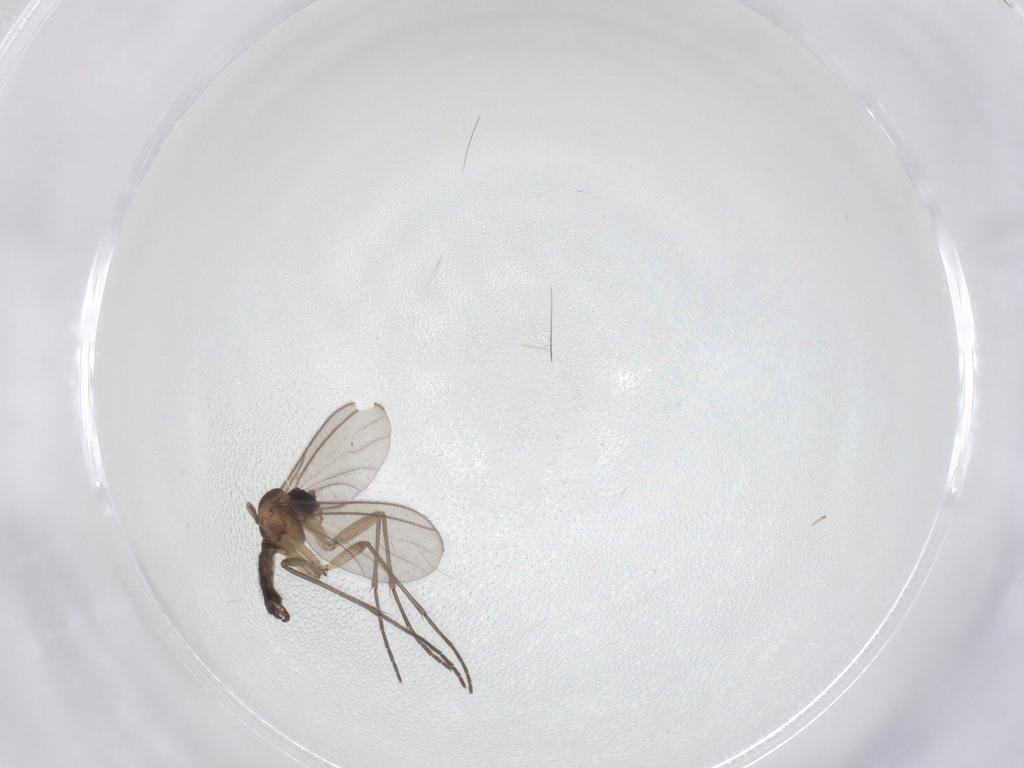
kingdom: Animalia
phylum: Arthropoda
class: Insecta
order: Diptera
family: Sciaridae
